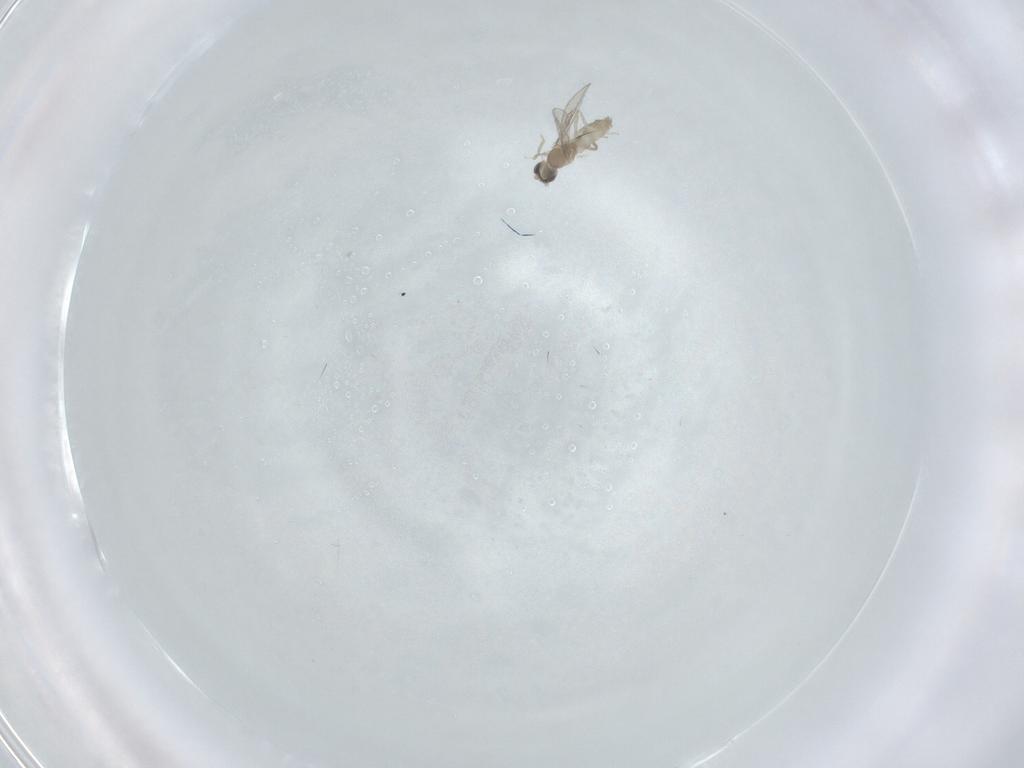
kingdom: Animalia
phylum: Arthropoda
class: Insecta
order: Diptera
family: Cecidomyiidae
